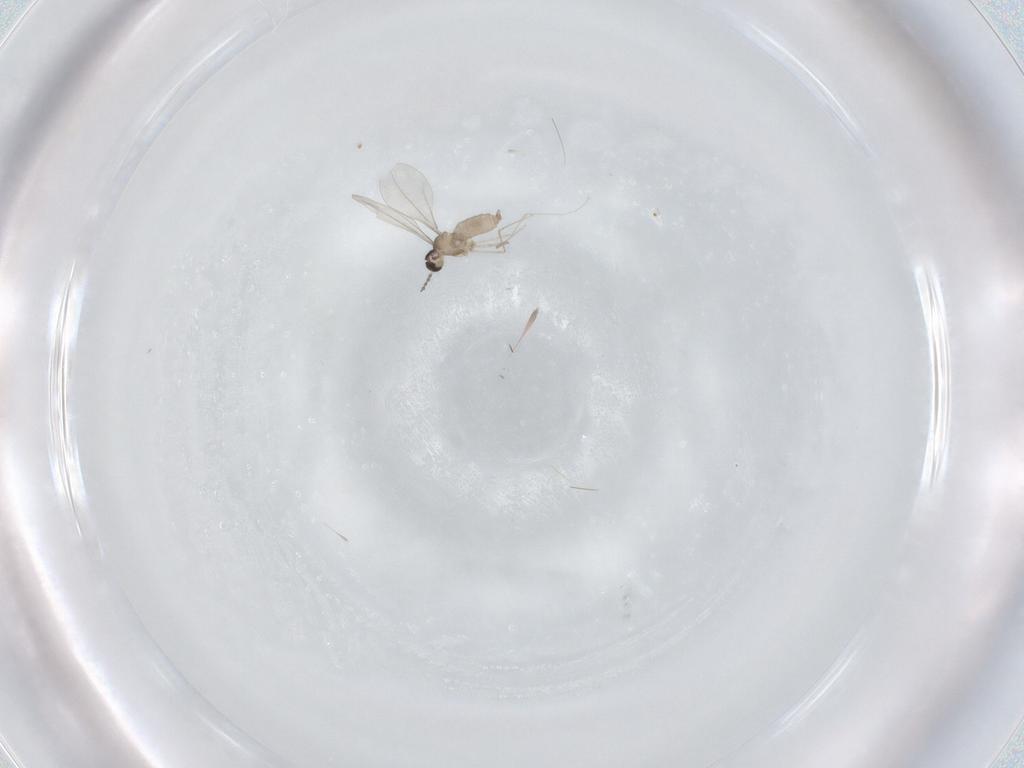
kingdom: Animalia
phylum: Arthropoda
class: Insecta
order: Diptera
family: Cecidomyiidae
